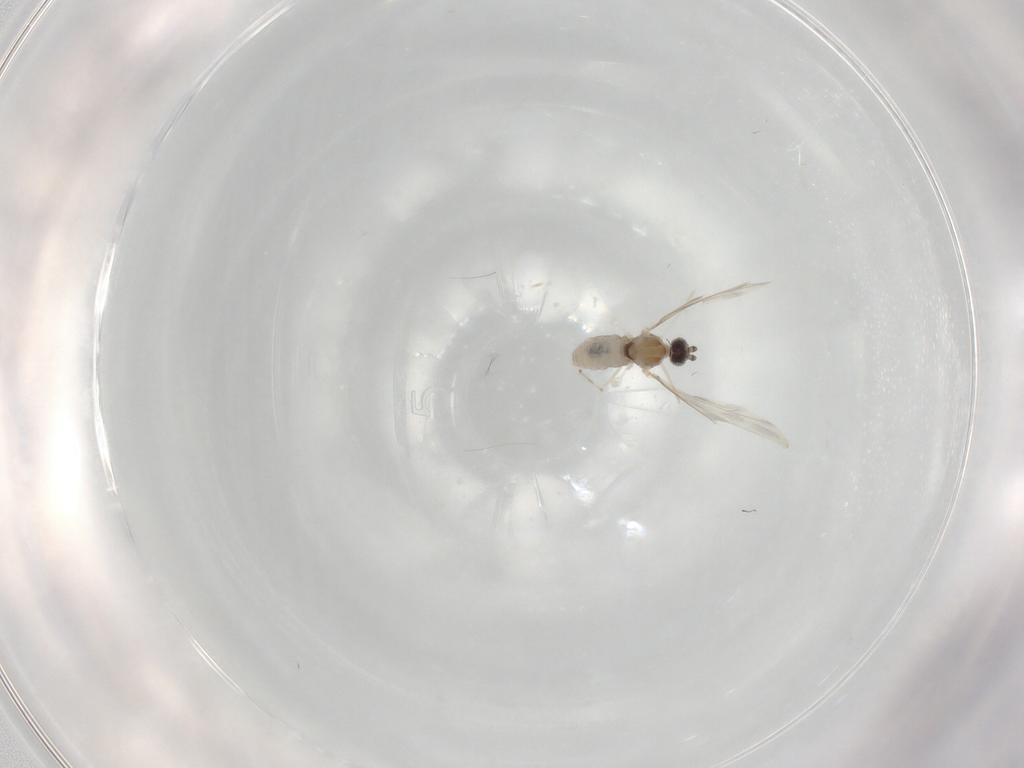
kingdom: Animalia
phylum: Arthropoda
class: Insecta
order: Diptera
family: Cecidomyiidae
